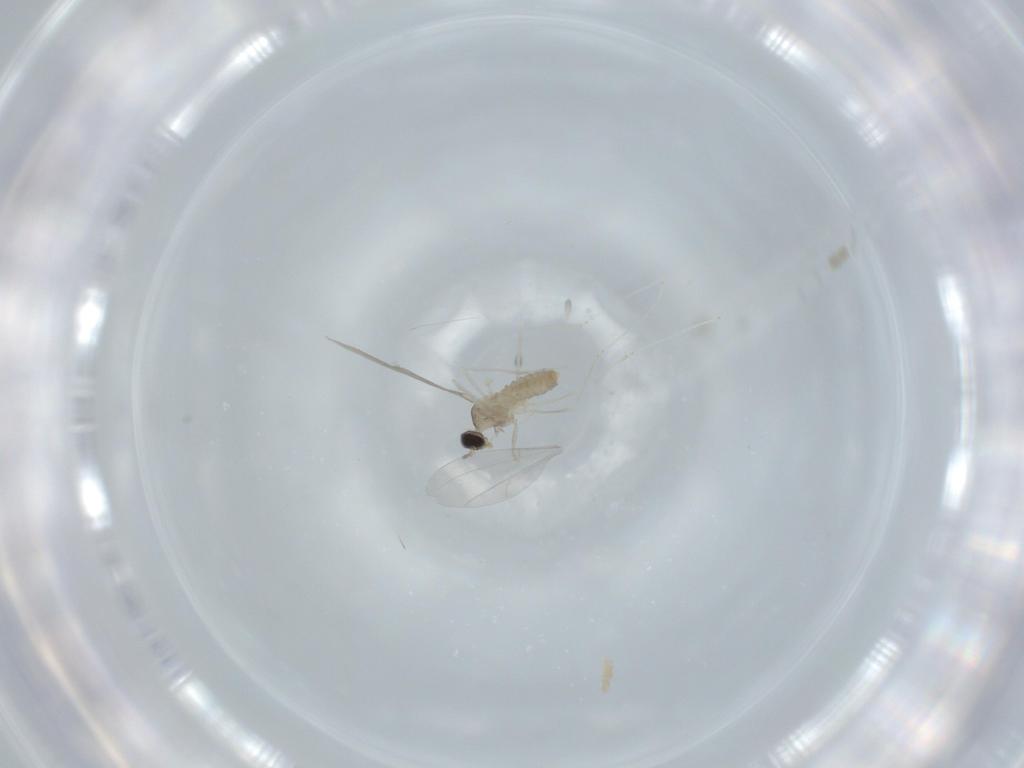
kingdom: Animalia
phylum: Arthropoda
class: Insecta
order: Diptera
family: Cecidomyiidae
